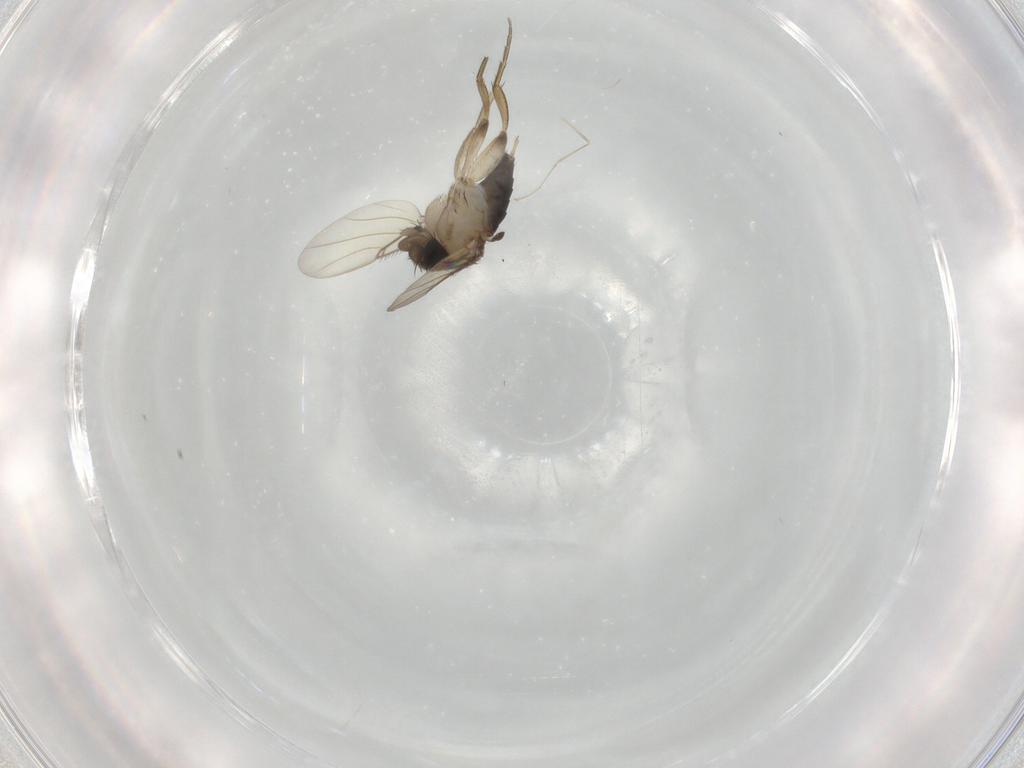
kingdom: Animalia
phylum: Arthropoda
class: Insecta
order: Diptera
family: Phoridae
